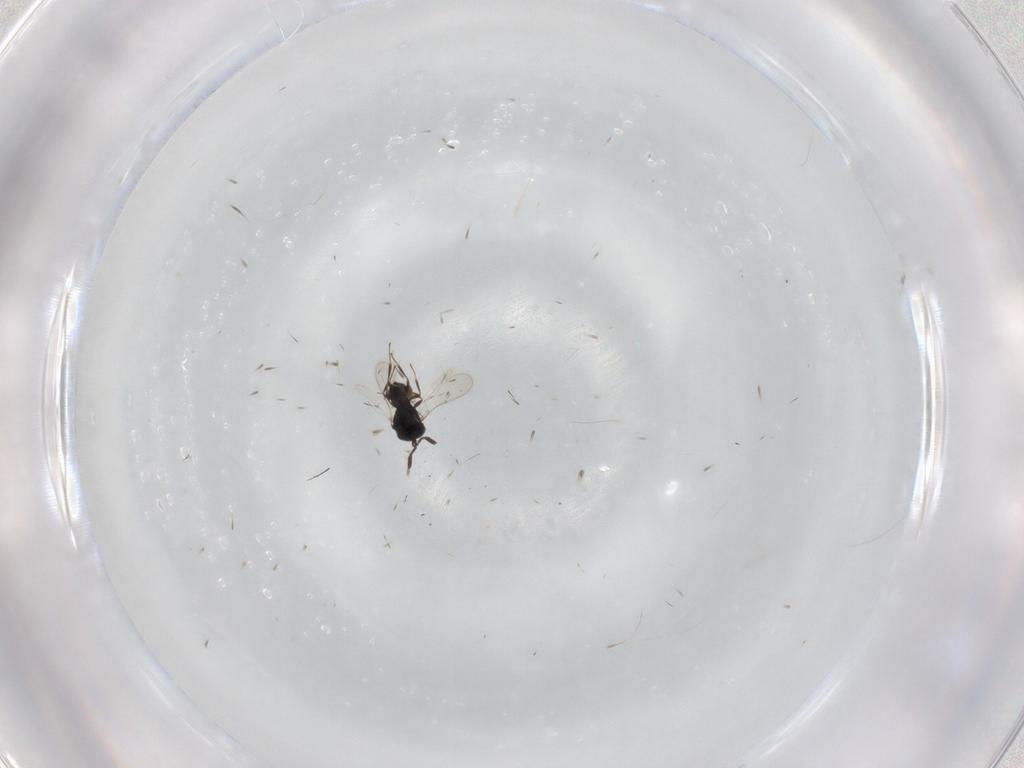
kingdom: Animalia
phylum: Arthropoda
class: Insecta
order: Hymenoptera
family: Scelionidae
